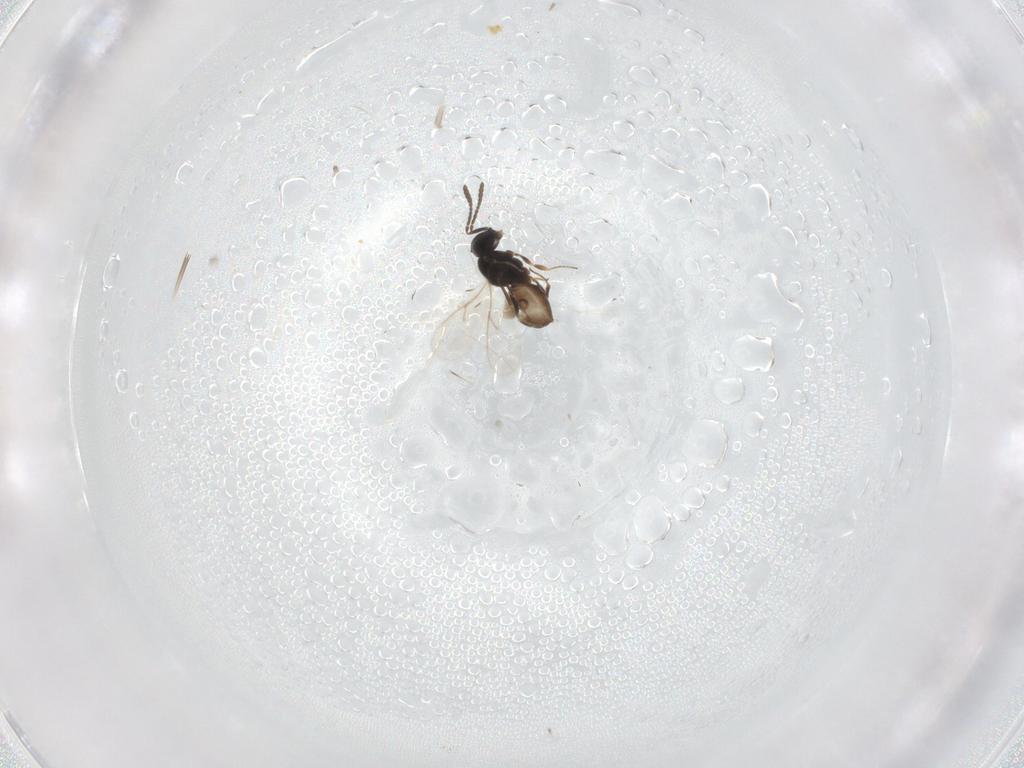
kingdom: Animalia
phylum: Arthropoda
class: Insecta
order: Hymenoptera
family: Scelionidae
